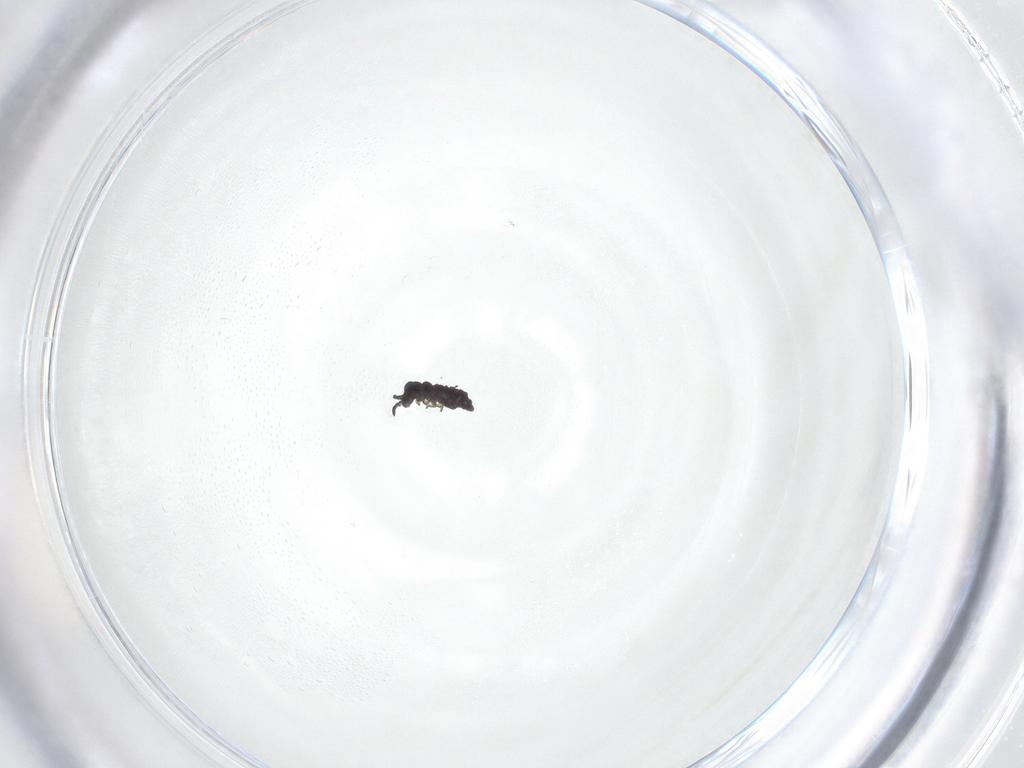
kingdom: Animalia
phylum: Arthropoda
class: Collembola
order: Poduromorpha
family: Hypogastruridae
